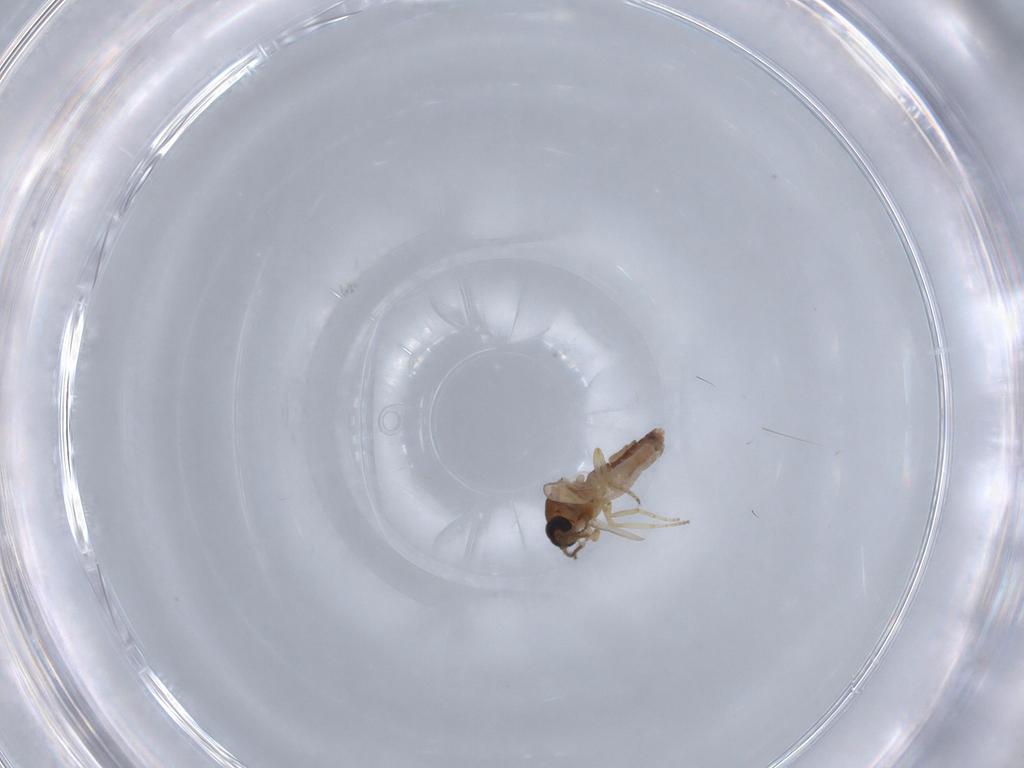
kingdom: Animalia
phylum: Arthropoda
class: Insecta
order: Diptera
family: Ceratopogonidae
